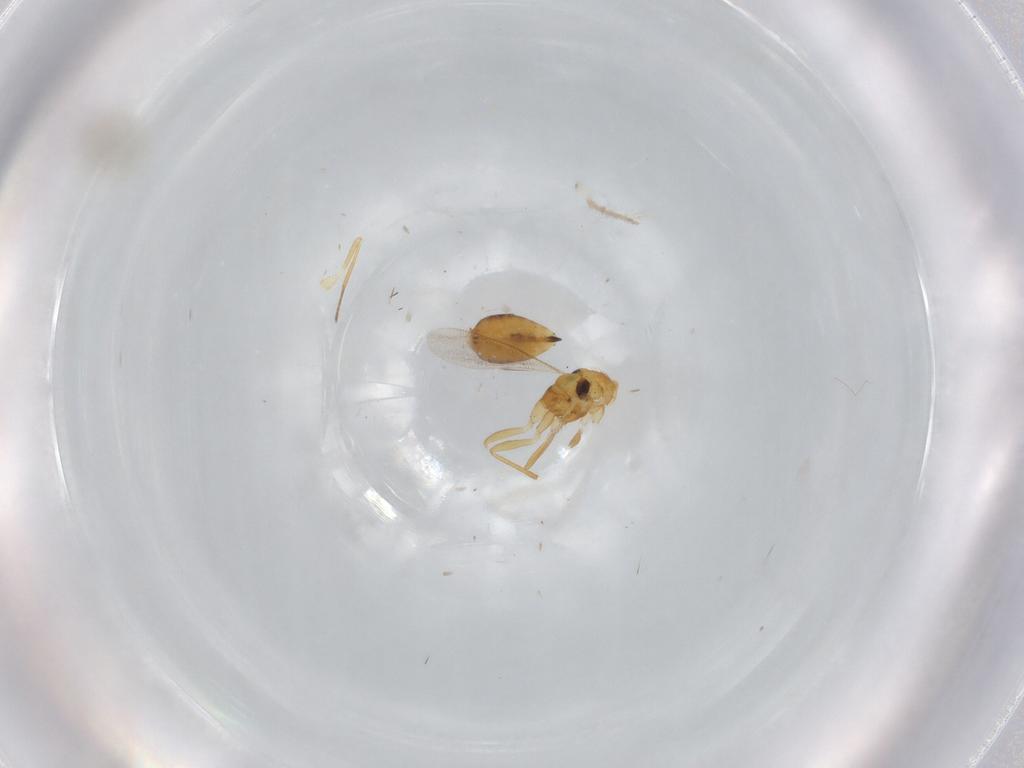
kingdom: Animalia
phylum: Arthropoda
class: Insecta
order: Hymenoptera
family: Eulophidae
